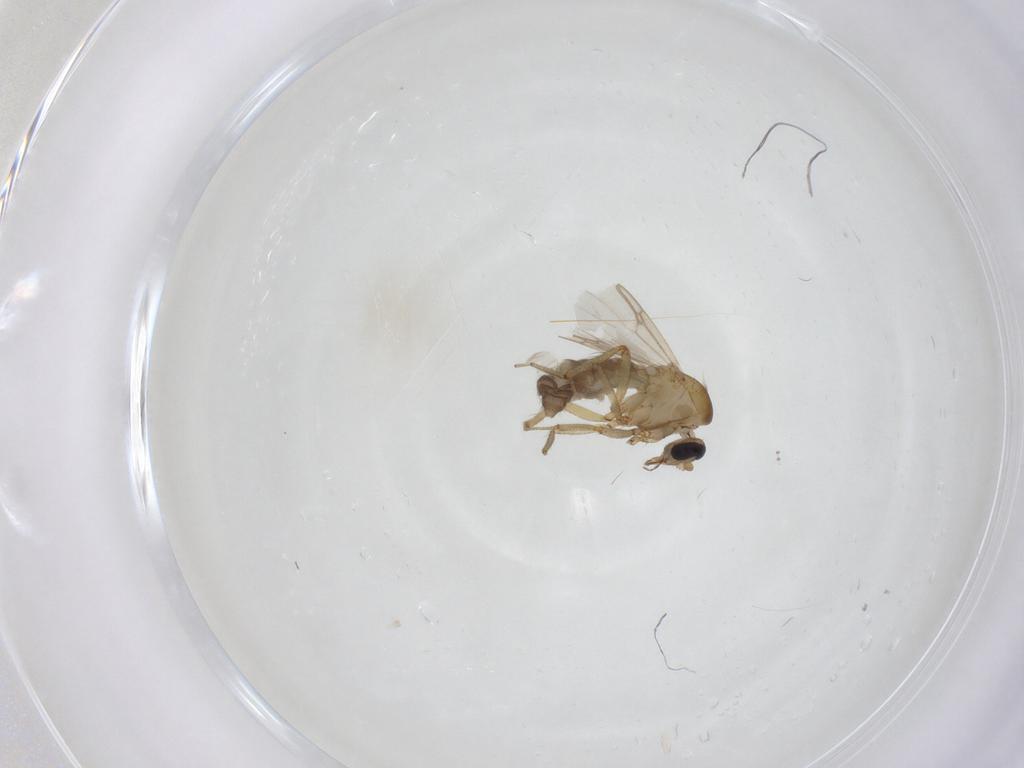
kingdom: Animalia
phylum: Arthropoda
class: Insecta
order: Diptera
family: Ceratopogonidae
